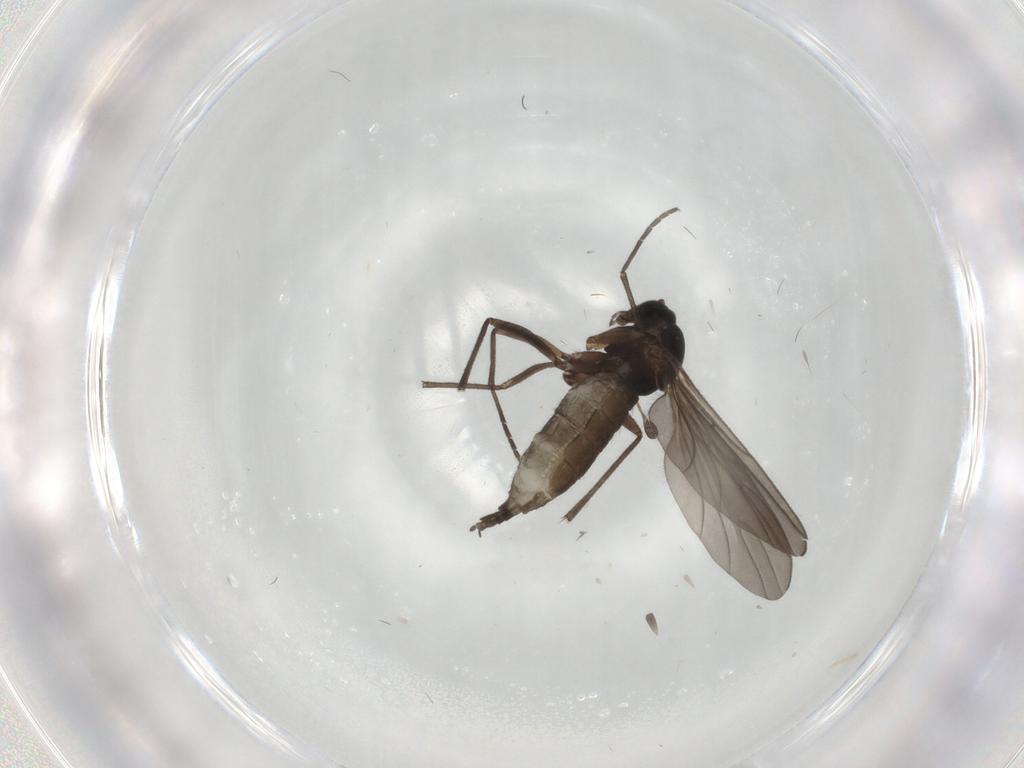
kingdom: Animalia
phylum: Arthropoda
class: Insecta
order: Diptera
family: Sciaridae
